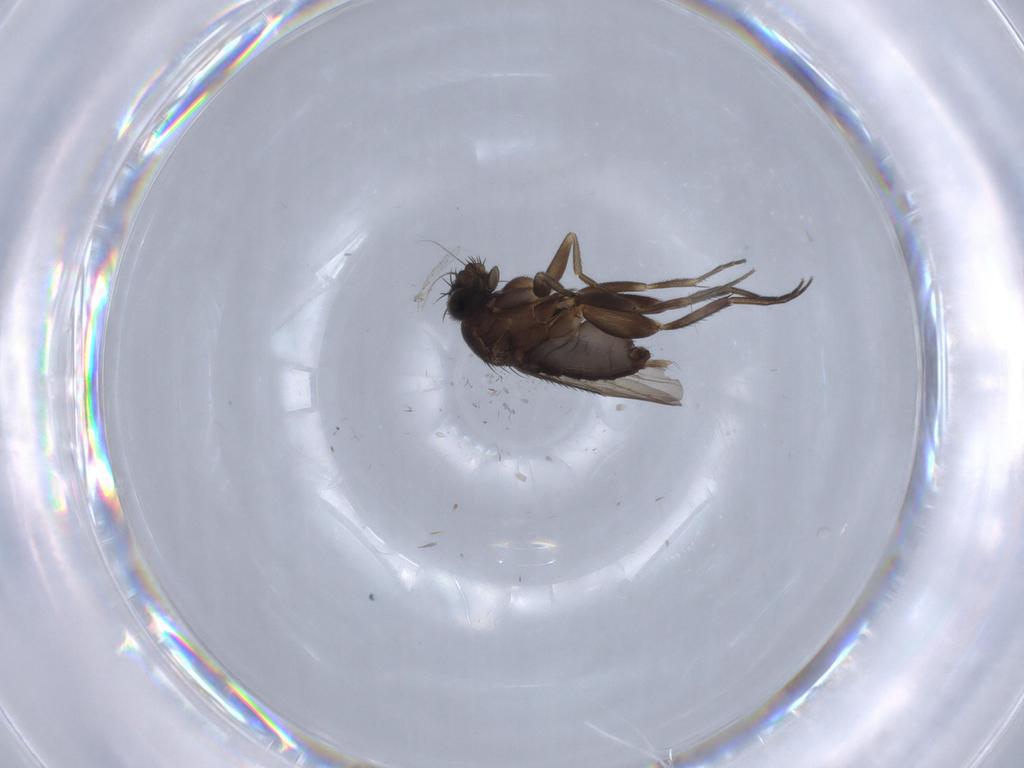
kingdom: Animalia
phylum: Arthropoda
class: Insecta
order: Diptera
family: Phoridae
